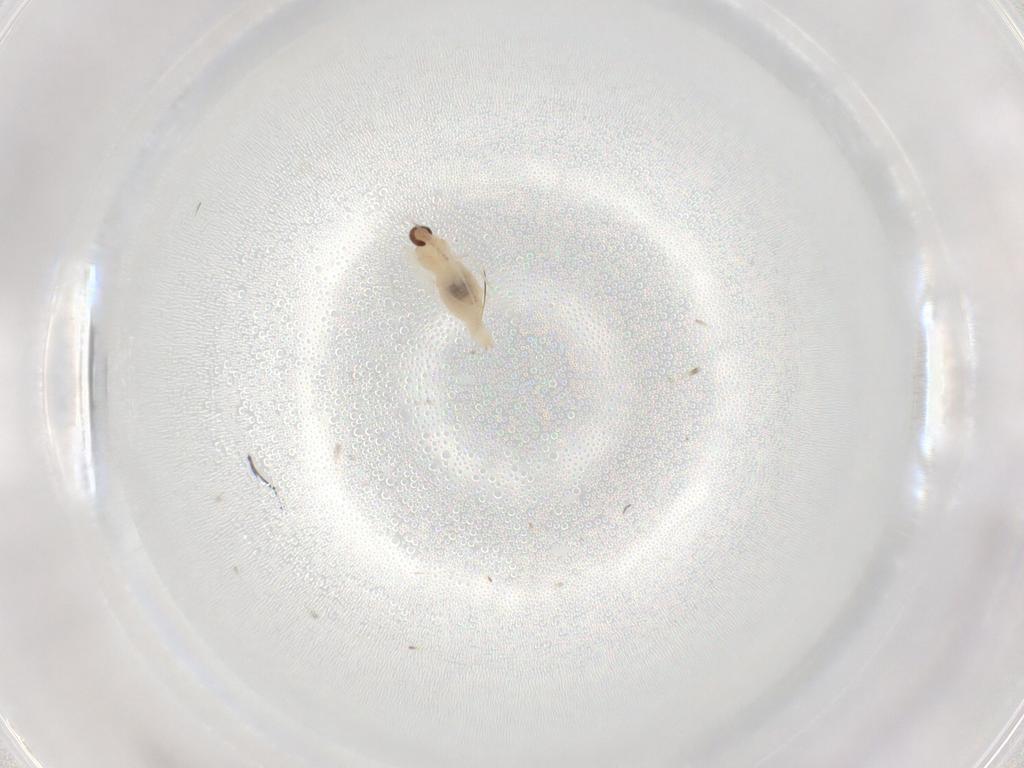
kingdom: Animalia
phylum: Arthropoda
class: Insecta
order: Diptera
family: Cecidomyiidae
